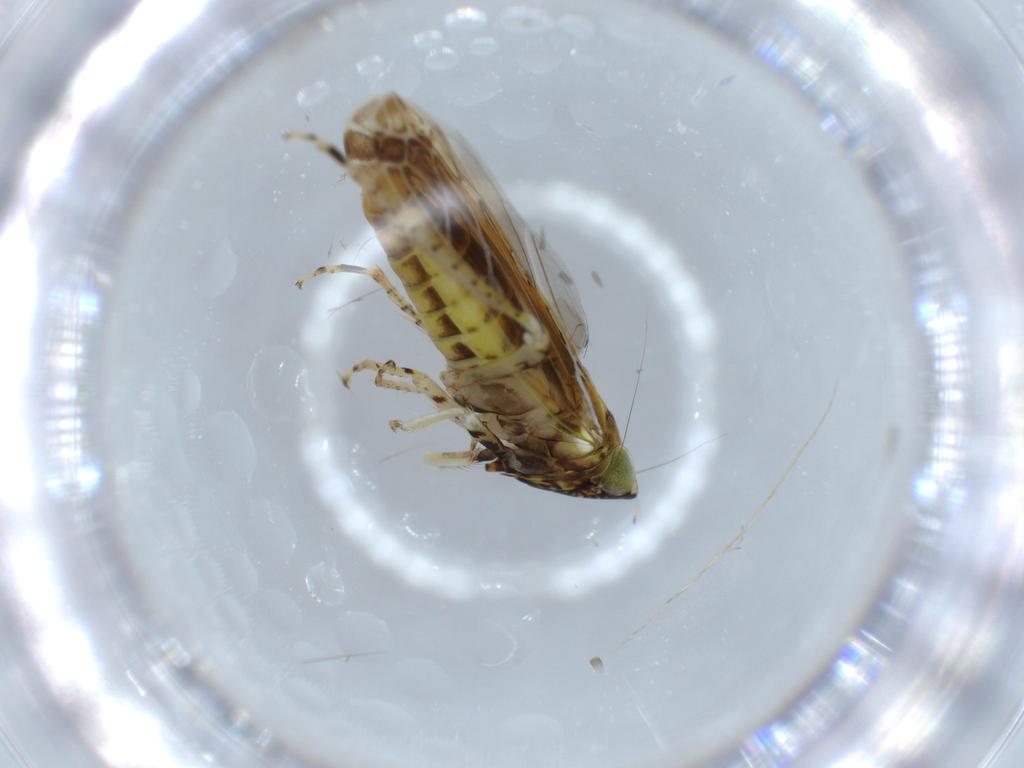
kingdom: Animalia
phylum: Arthropoda
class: Insecta
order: Hemiptera
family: Cicadellidae
